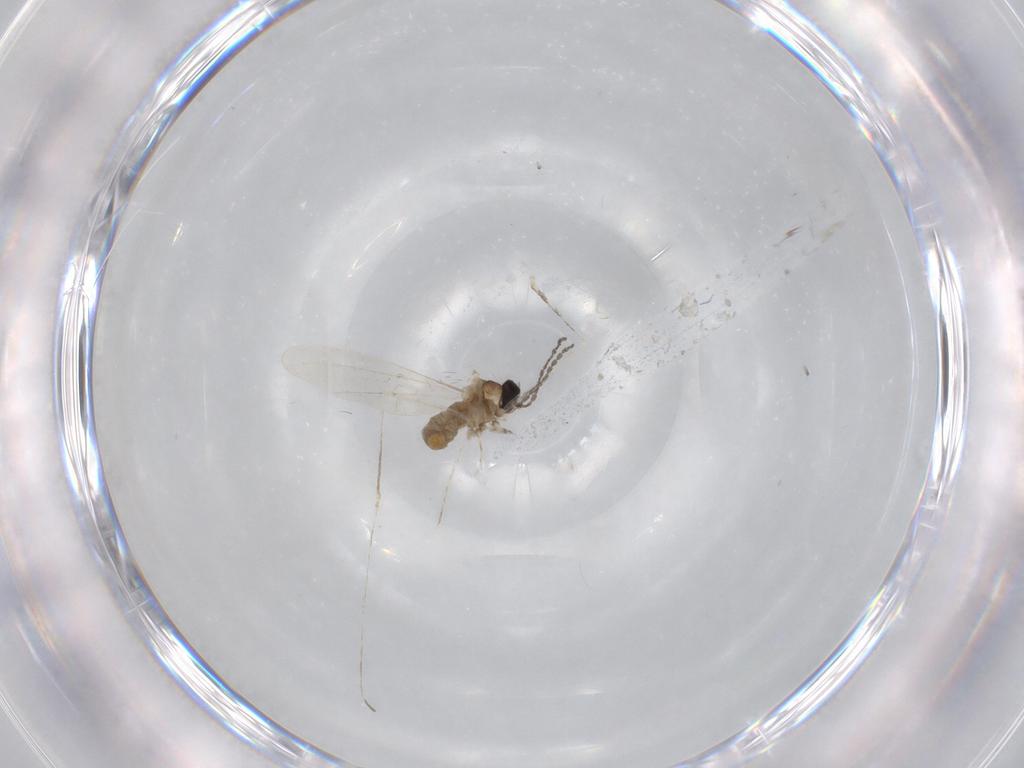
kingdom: Animalia
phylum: Arthropoda
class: Insecta
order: Diptera
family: Cecidomyiidae
